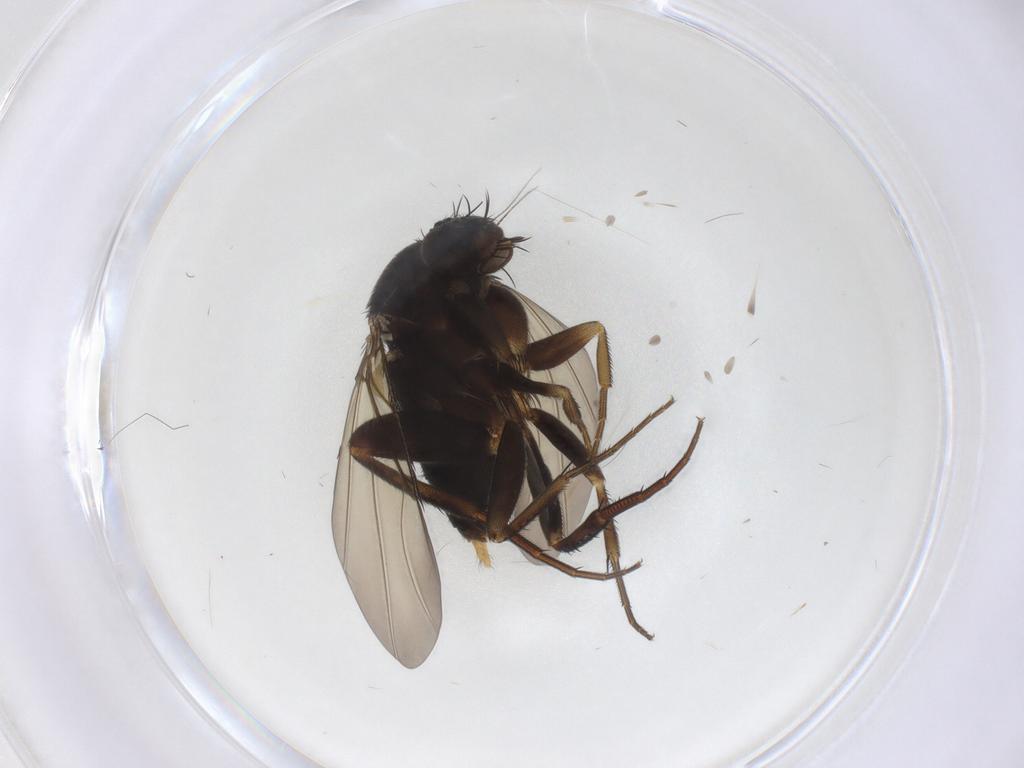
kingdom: Animalia
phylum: Arthropoda
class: Insecta
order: Diptera
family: Phoridae
